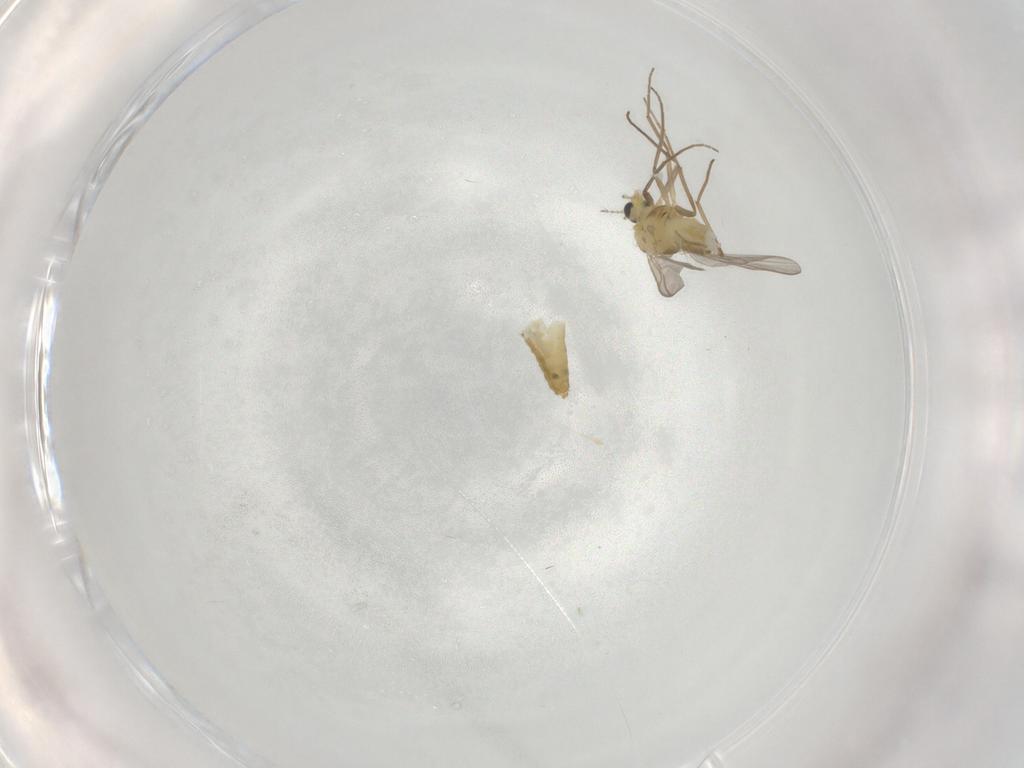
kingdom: Animalia
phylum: Arthropoda
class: Insecta
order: Diptera
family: Chironomidae
